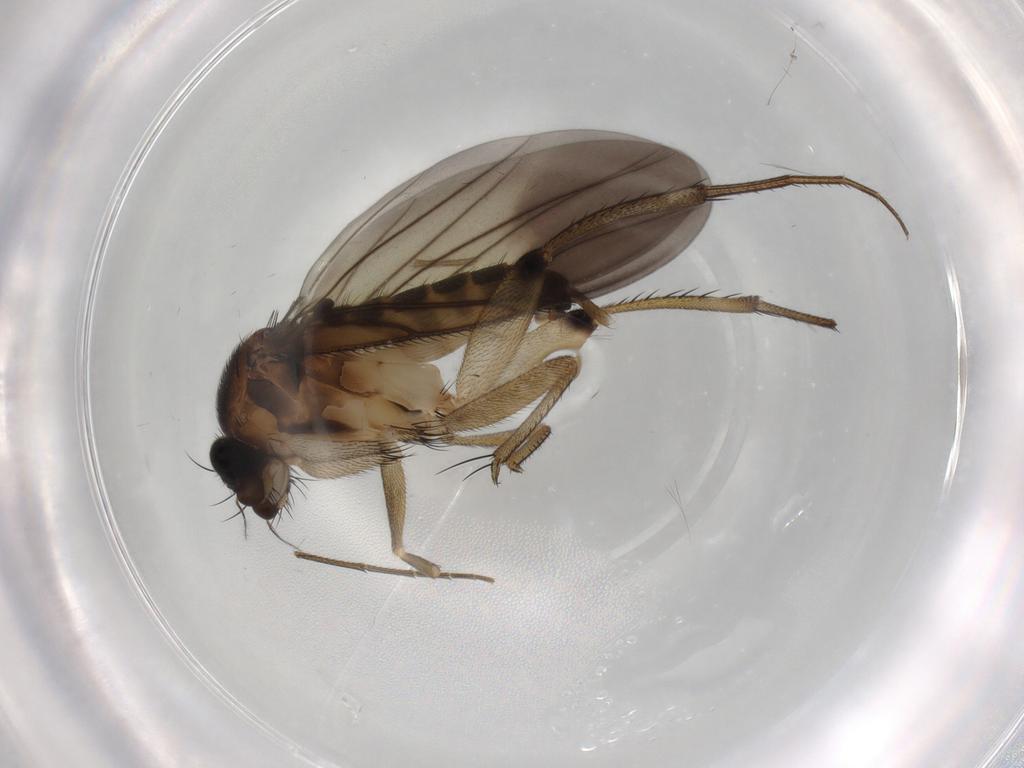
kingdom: Animalia
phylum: Arthropoda
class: Insecta
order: Diptera
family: Phoridae
